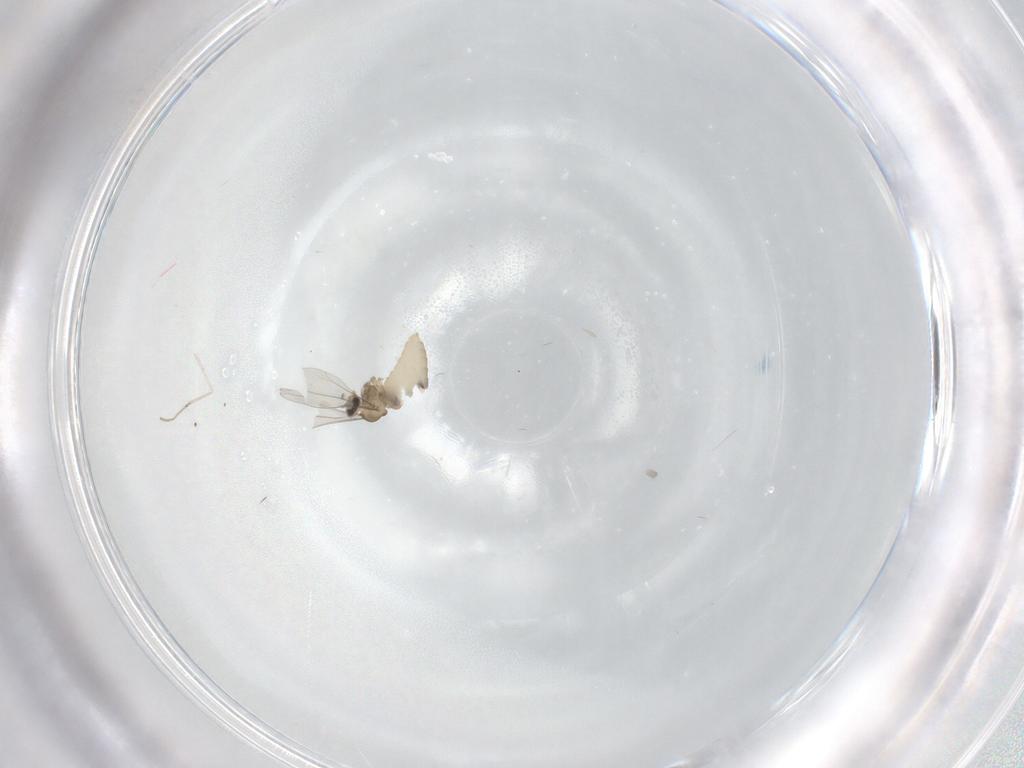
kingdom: Animalia
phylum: Arthropoda
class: Insecta
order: Diptera
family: Cecidomyiidae
